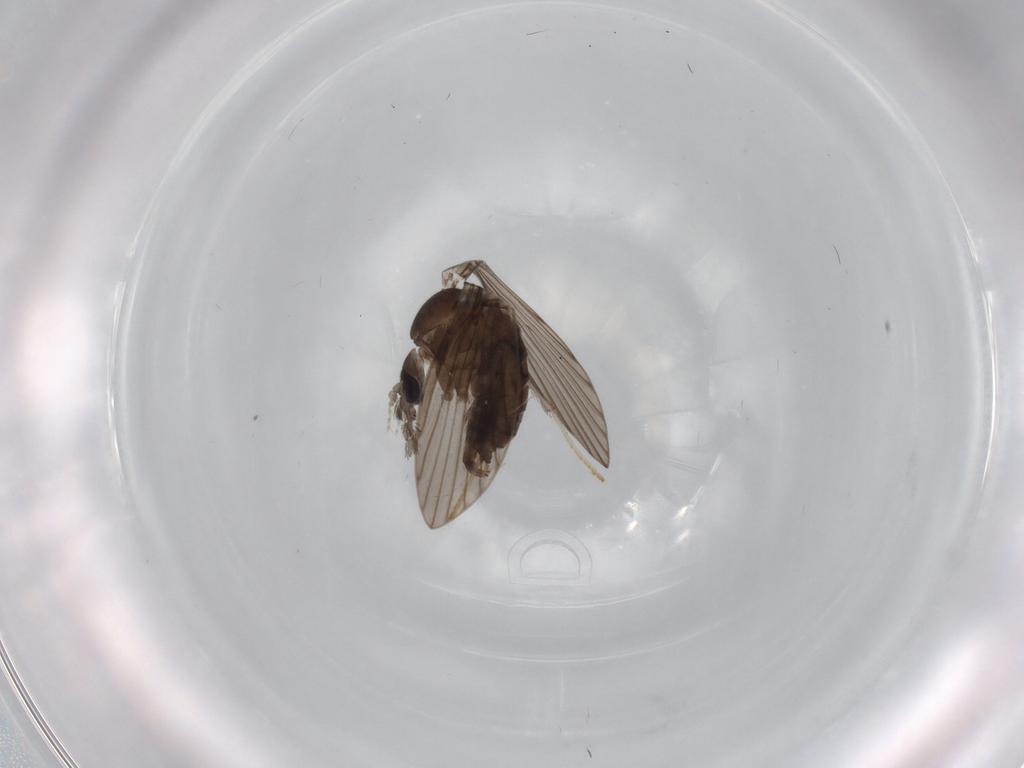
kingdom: Animalia
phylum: Arthropoda
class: Insecta
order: Diptera
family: Psychodidae
